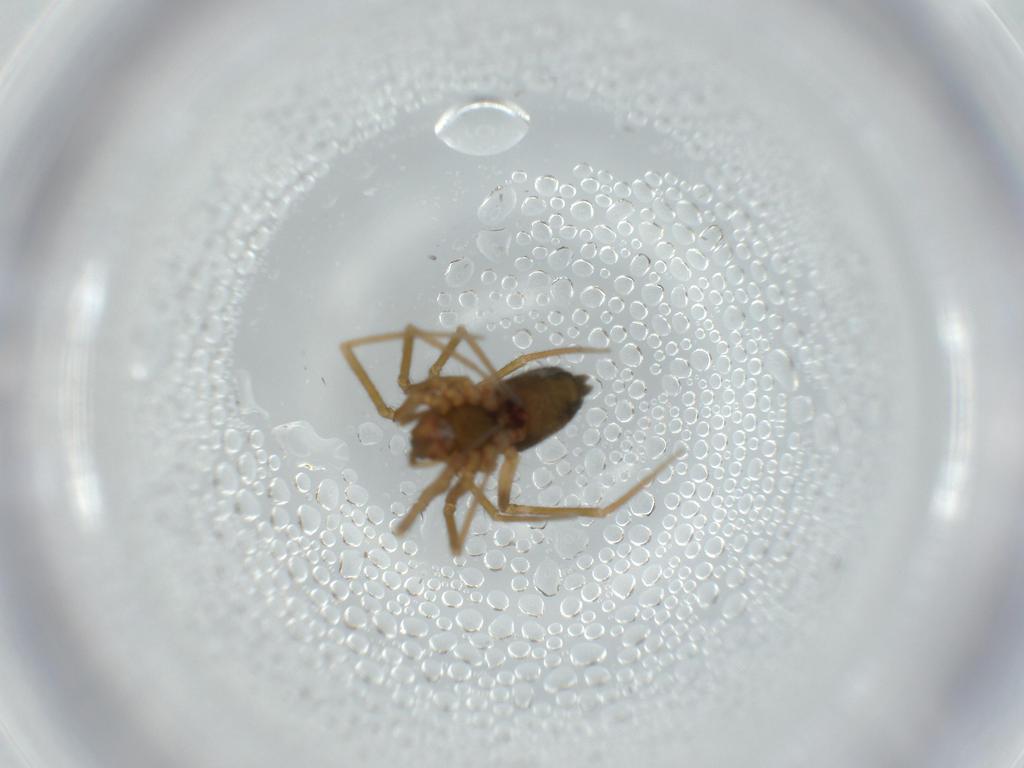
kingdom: Animalia
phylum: Arthropoda
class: Arachnida
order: Araneae
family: Linyphiidae
